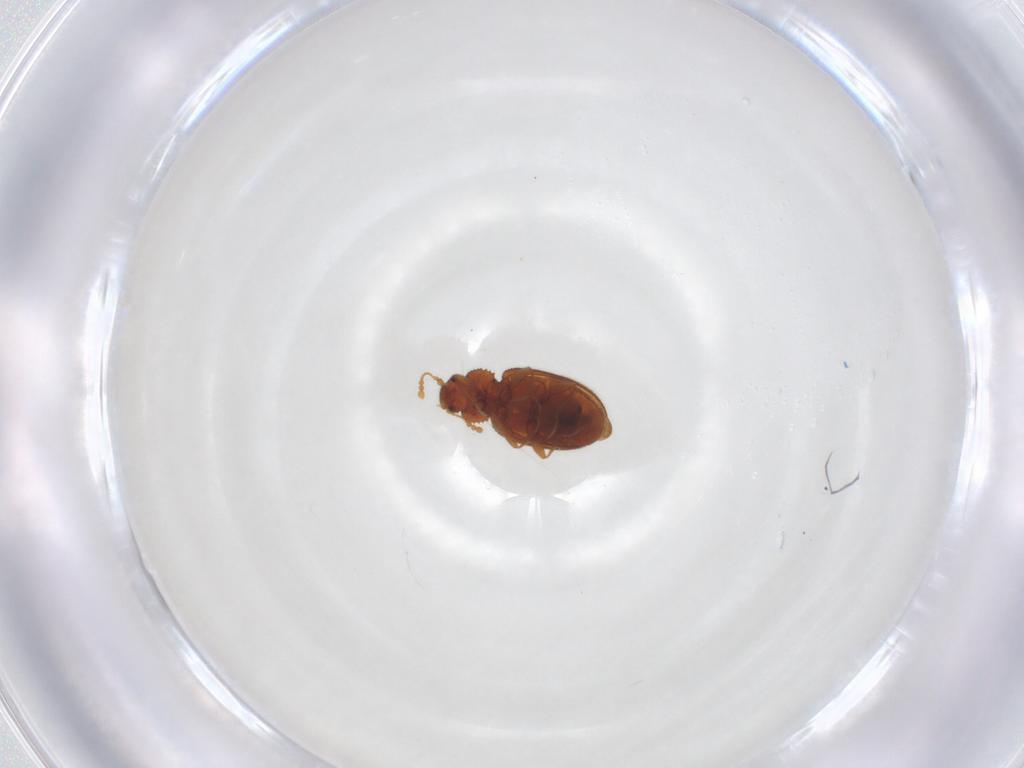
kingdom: Animalia
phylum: Arthropoda
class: Insecta
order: Coleoptera
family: Latridiidae
